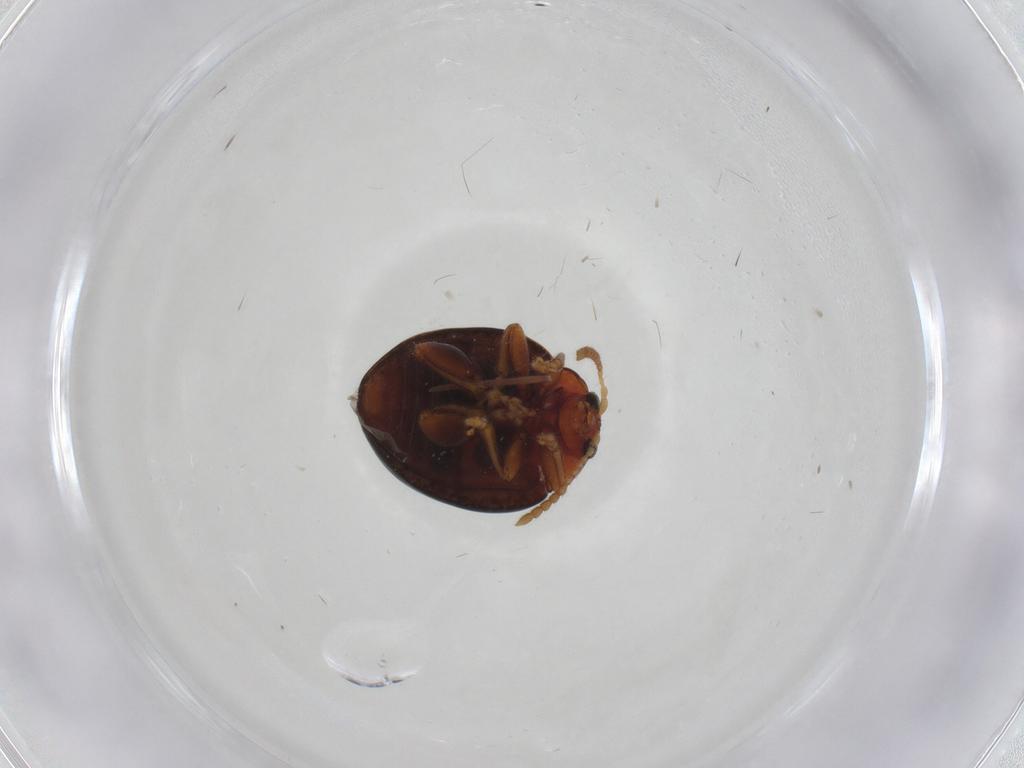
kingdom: Animalia
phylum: Arthropoda
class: Insecta
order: Coleoptera
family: Chrysomelidae
